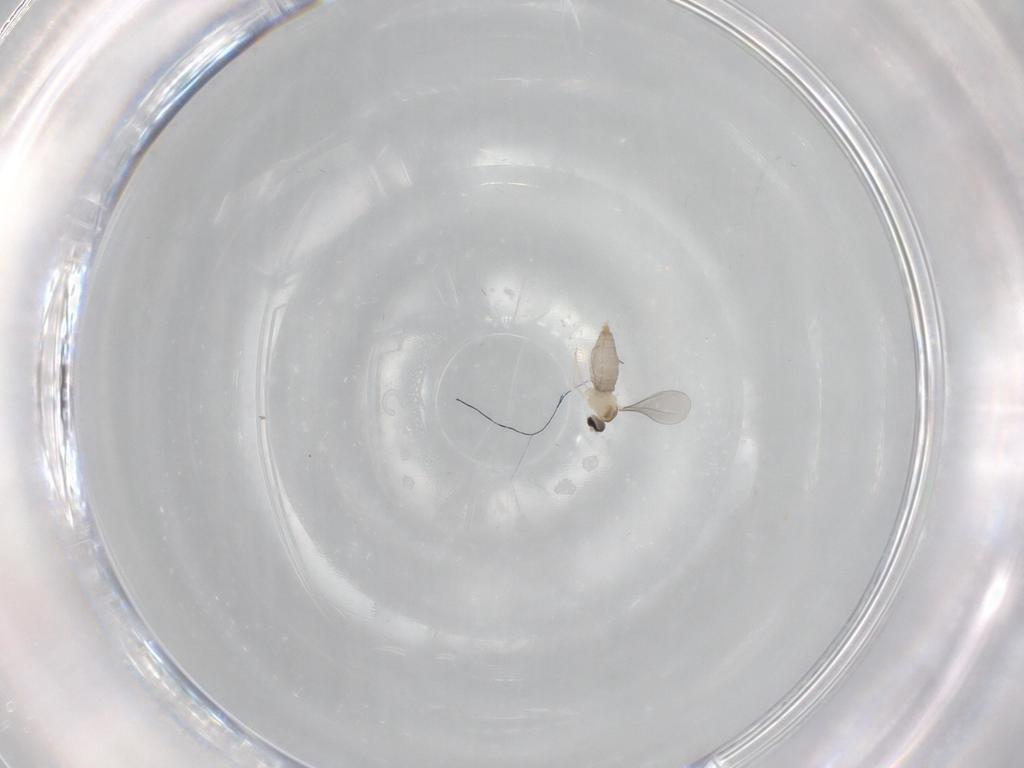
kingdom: Animalia
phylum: Arthropoda
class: Insecta
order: Diptera
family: Cecidomyiidae
